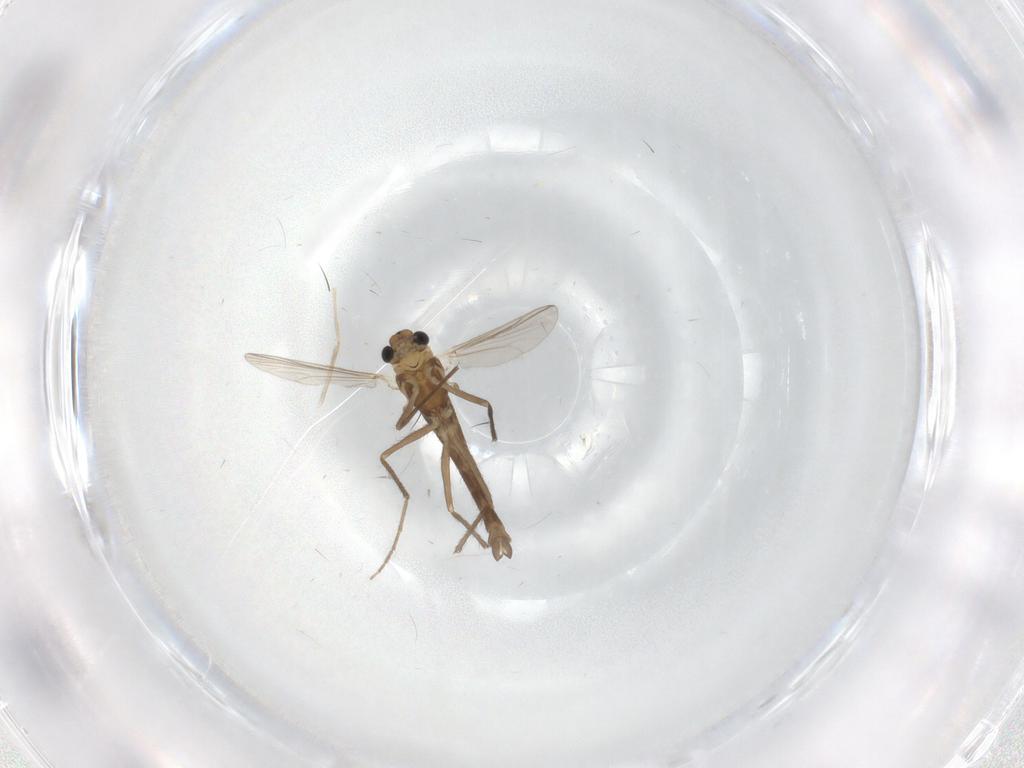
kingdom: Animalia
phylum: Arthropoda
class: Insecta
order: Diptera
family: Chironomidae
